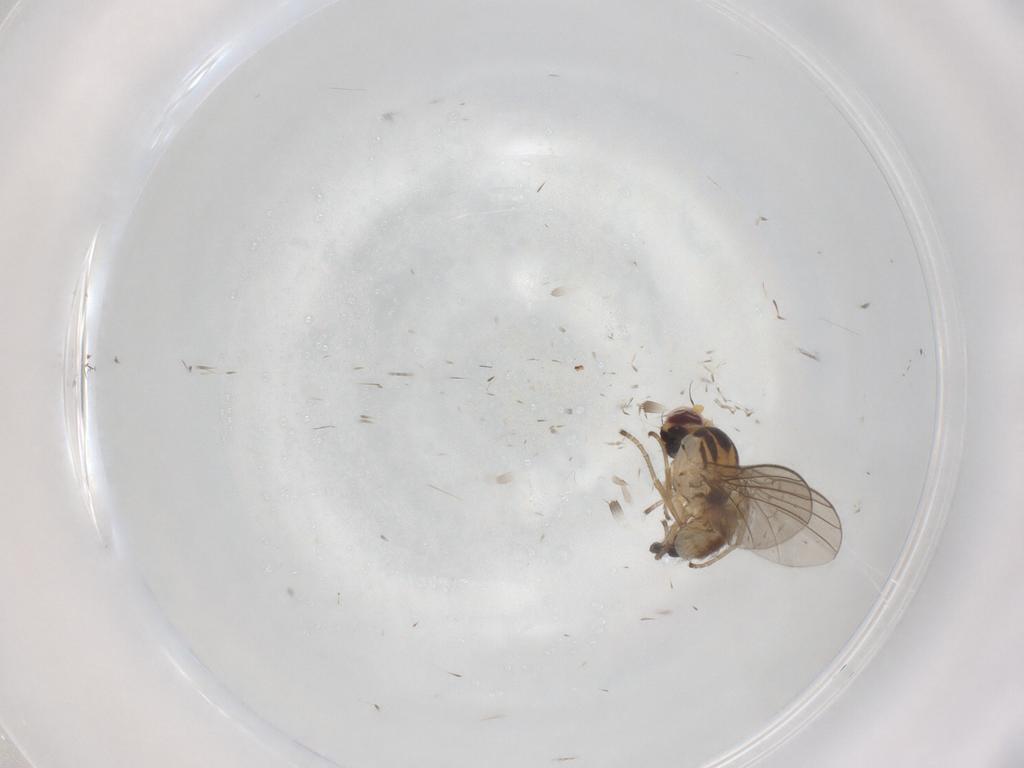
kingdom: Animalia
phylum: Arthropoda
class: Insecta
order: Diptera
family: Agromyzidae
